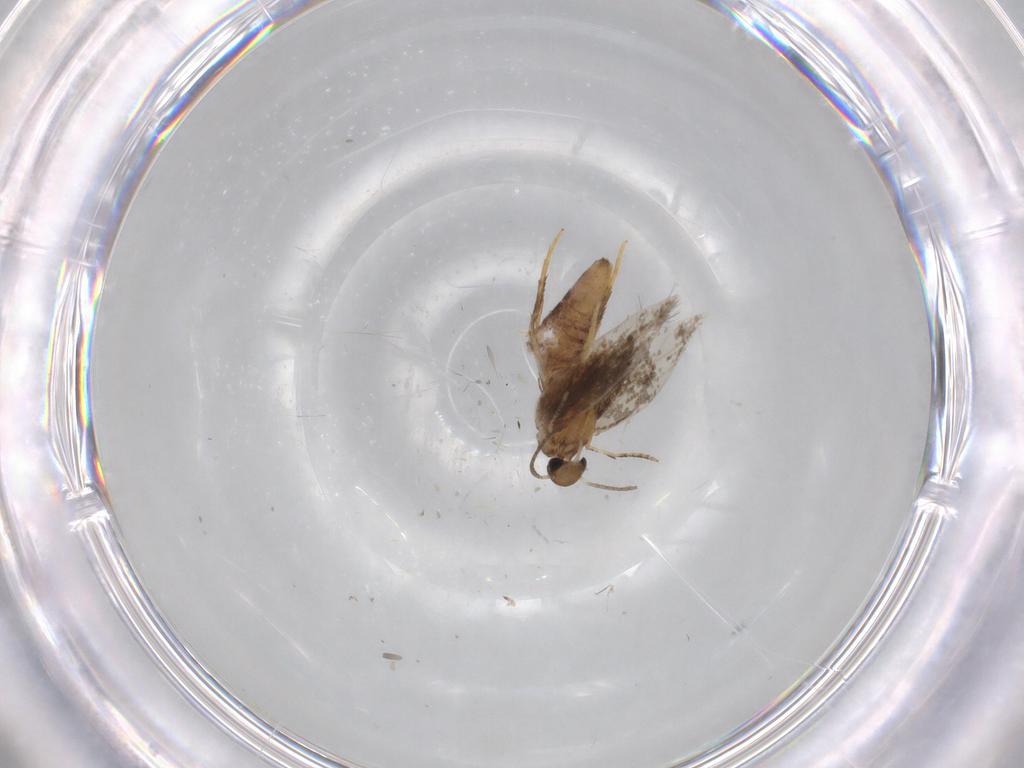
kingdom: Animalia
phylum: Arthropoda
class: Insecta
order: Lepidoptera
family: Heliozelidae
